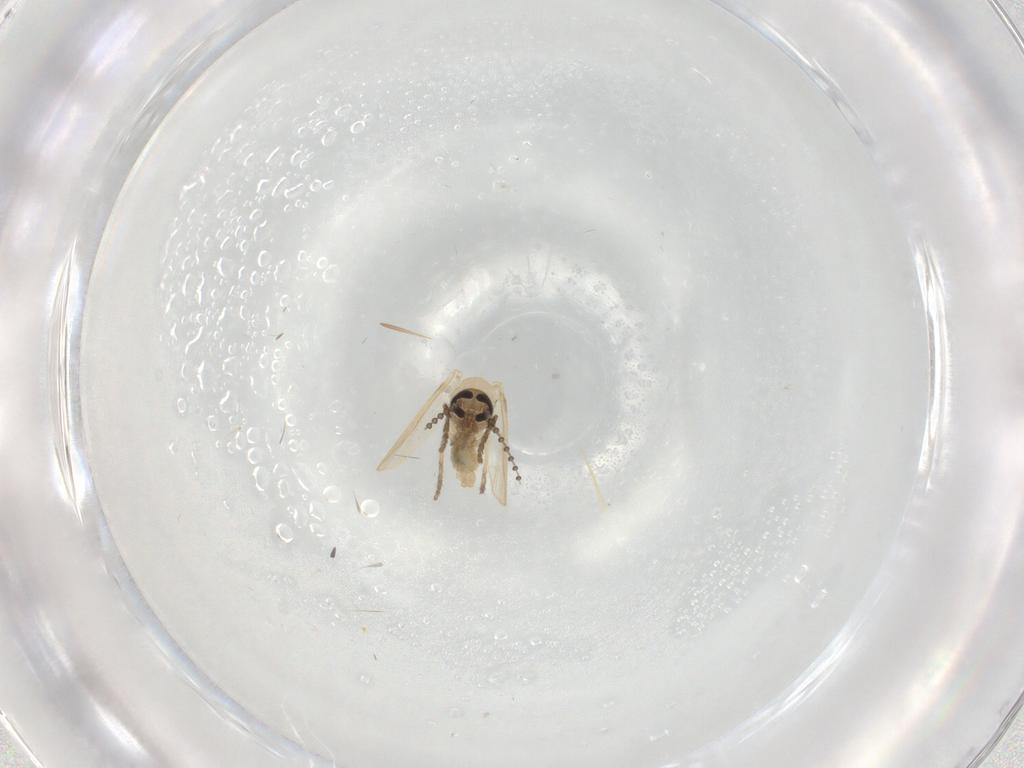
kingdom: Animalia
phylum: Arthropoda
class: Insecta
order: Diptera
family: Psychodidae
